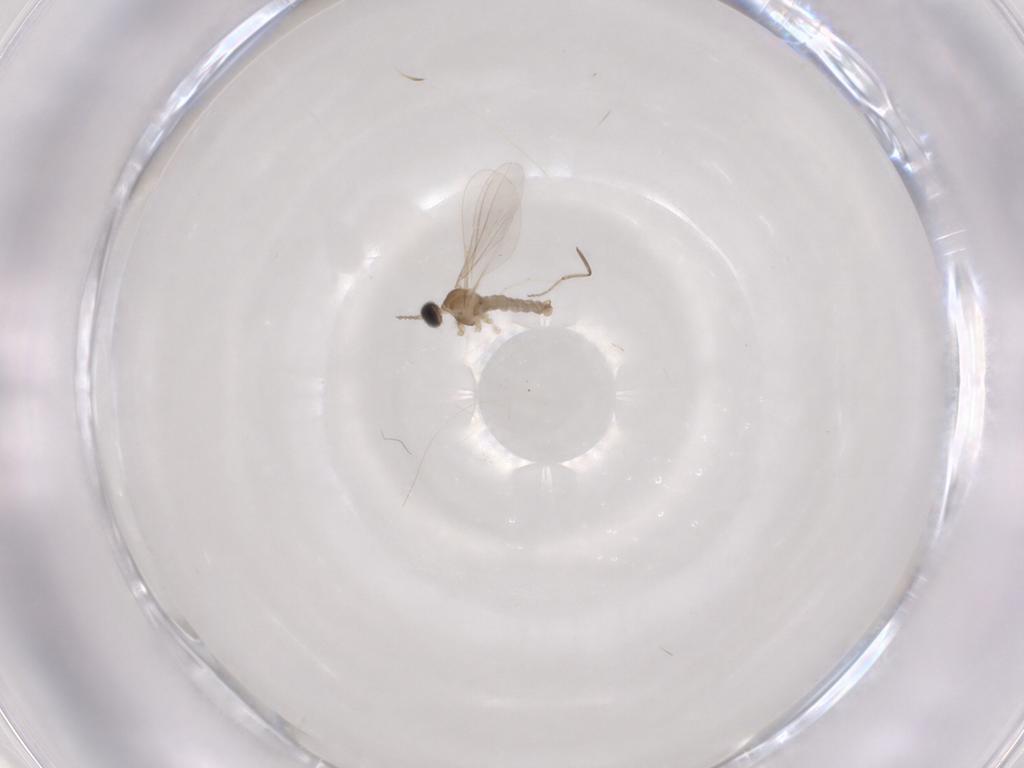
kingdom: Animalia
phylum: Arthropoda
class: Insecta
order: Diptera
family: Cecidomyiidae
